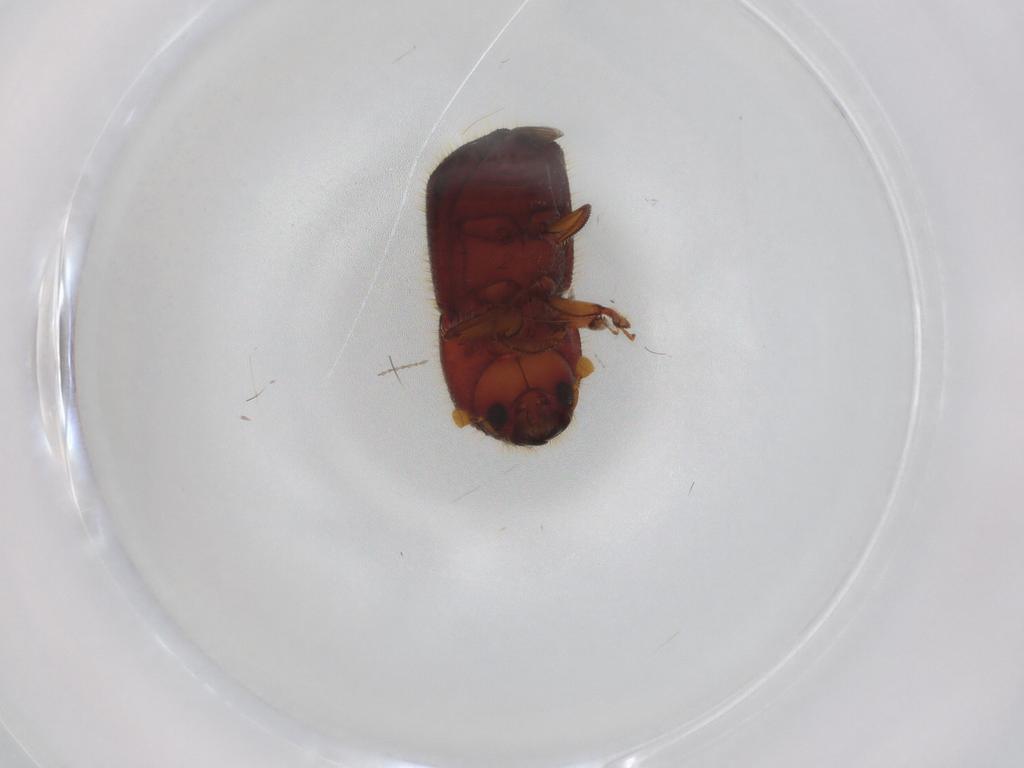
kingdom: Animalia
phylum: Arthropoda
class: Insecta
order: Coleoptera
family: Curculionidae
